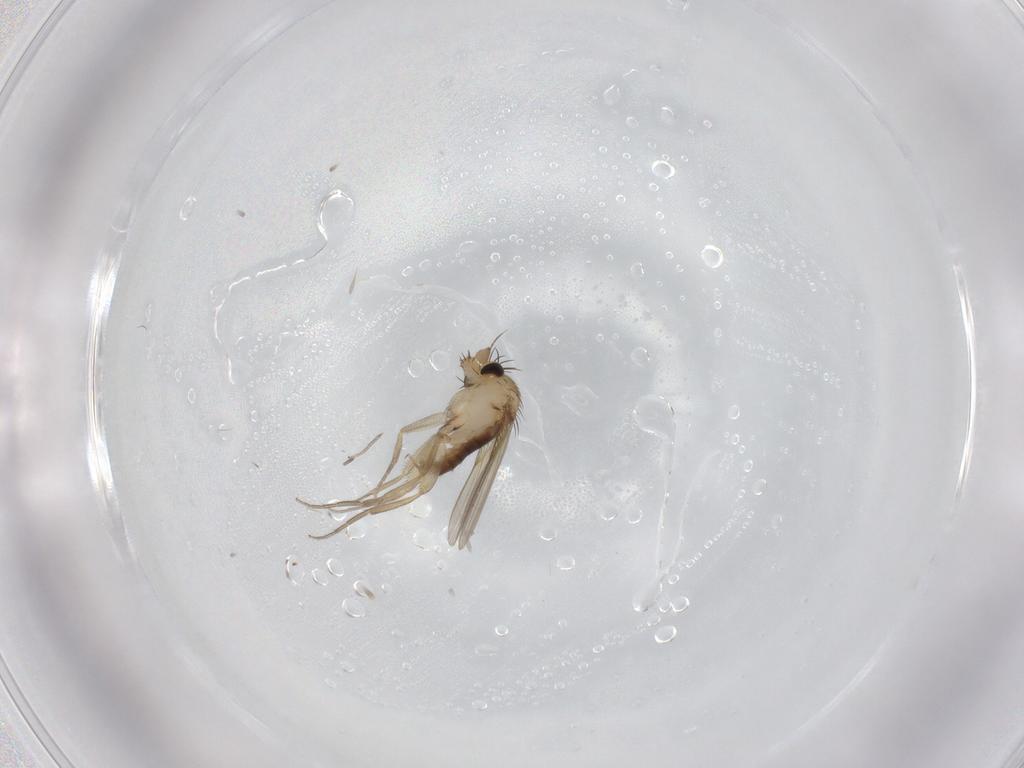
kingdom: Animalia
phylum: Arthropoda
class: Insecta
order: Diptera
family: Phoridae
